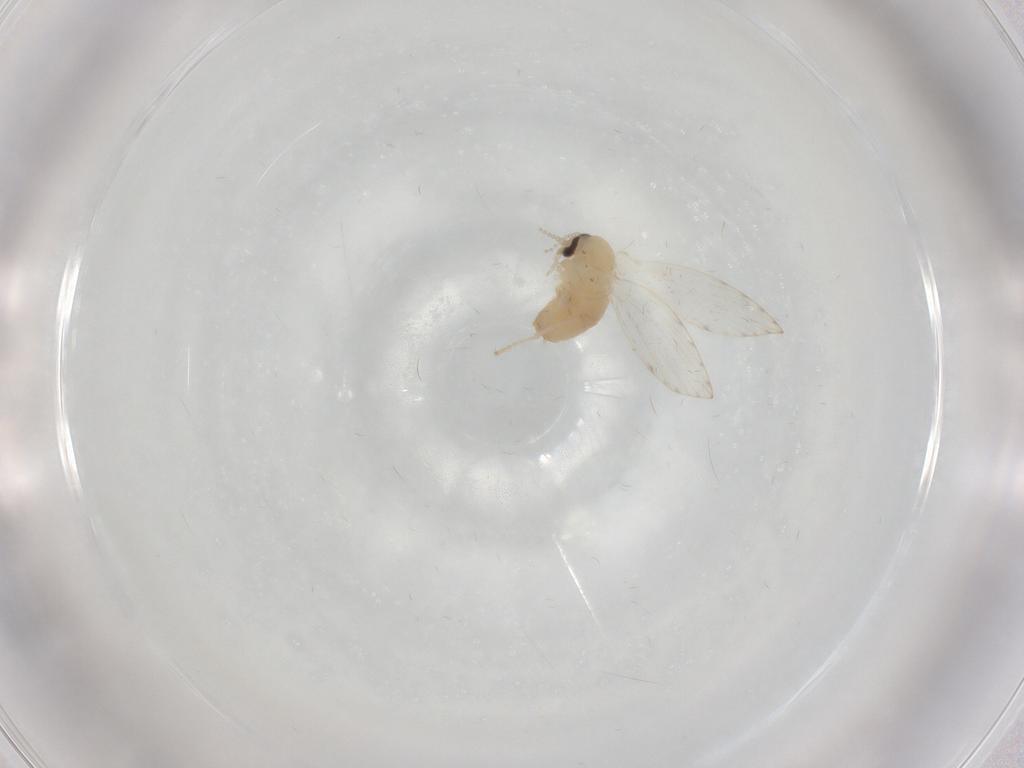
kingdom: Animalia
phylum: Arthropoda
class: Insecta
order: Diptera
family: Psychodidae
